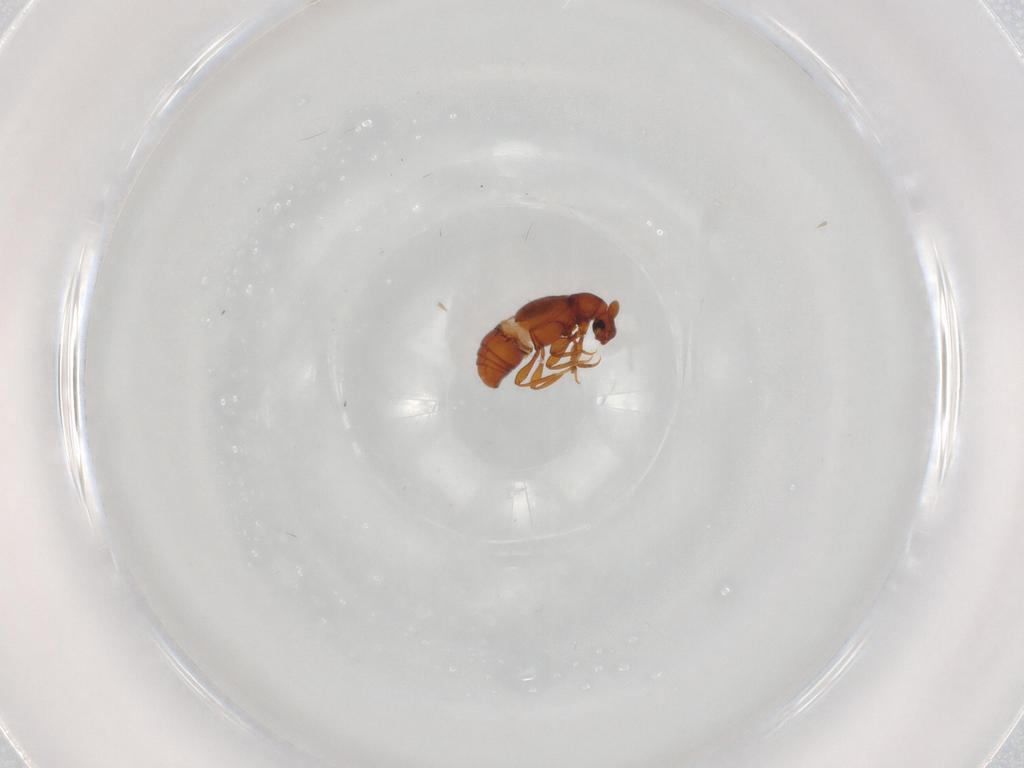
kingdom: Animalia
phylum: Arthropoda
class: Insecta
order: Coleoptera
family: Staphylinidae
